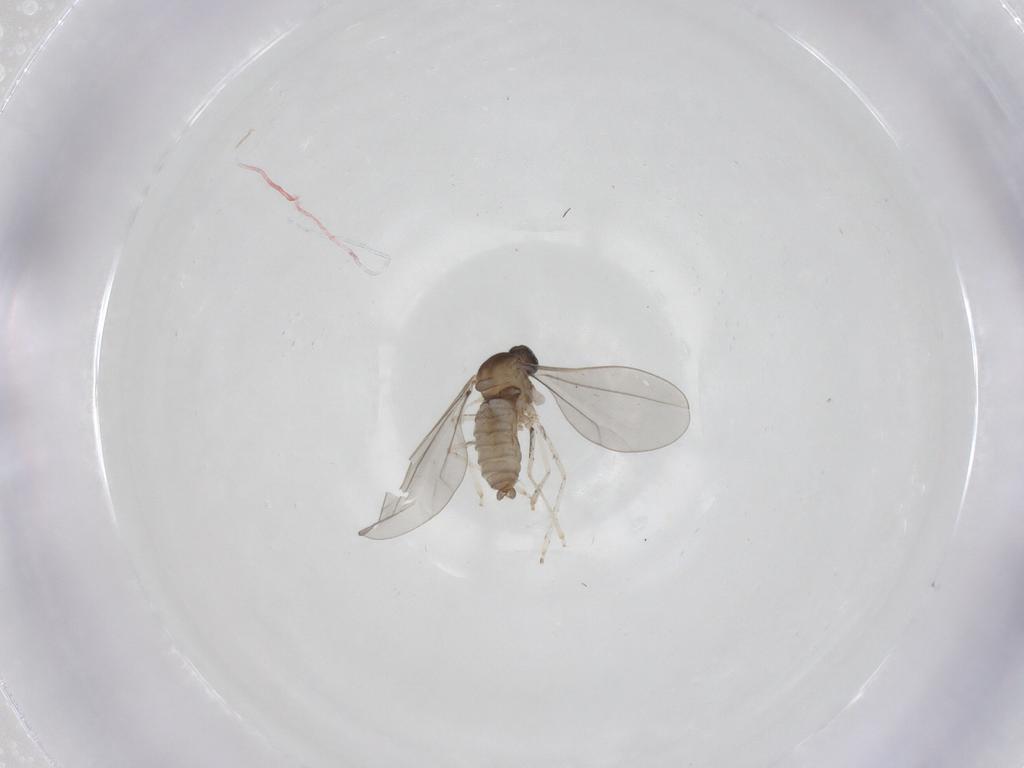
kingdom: Animalia
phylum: Arthropoda
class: Insecta
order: Diptera
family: Drosophilidae
